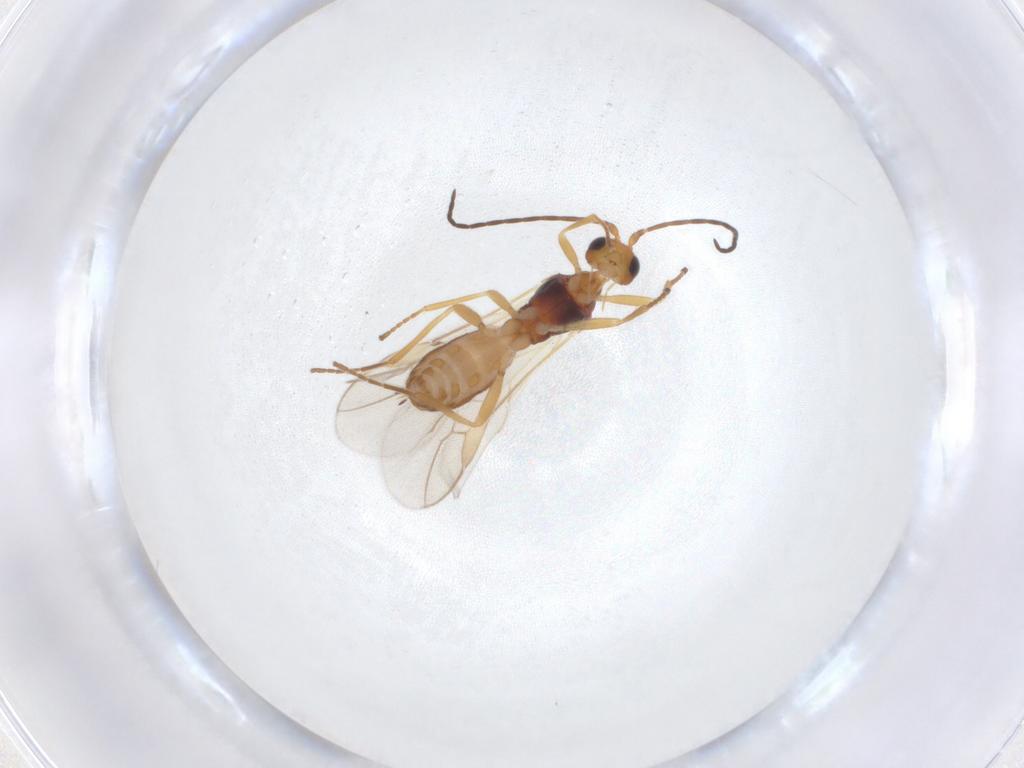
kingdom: Animalia
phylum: Arthropoda
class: Insecta
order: Hymenoptera
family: Braconidae
